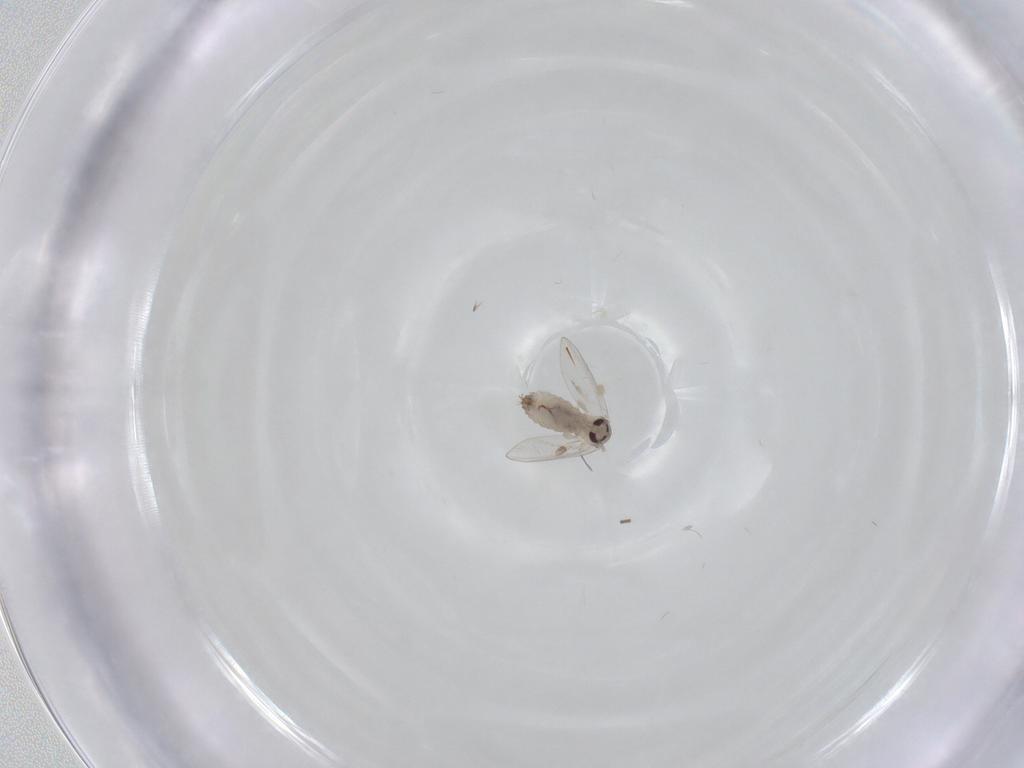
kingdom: Animalia
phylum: Arthropoda
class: Insecta
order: Diptera
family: Psychodidae
